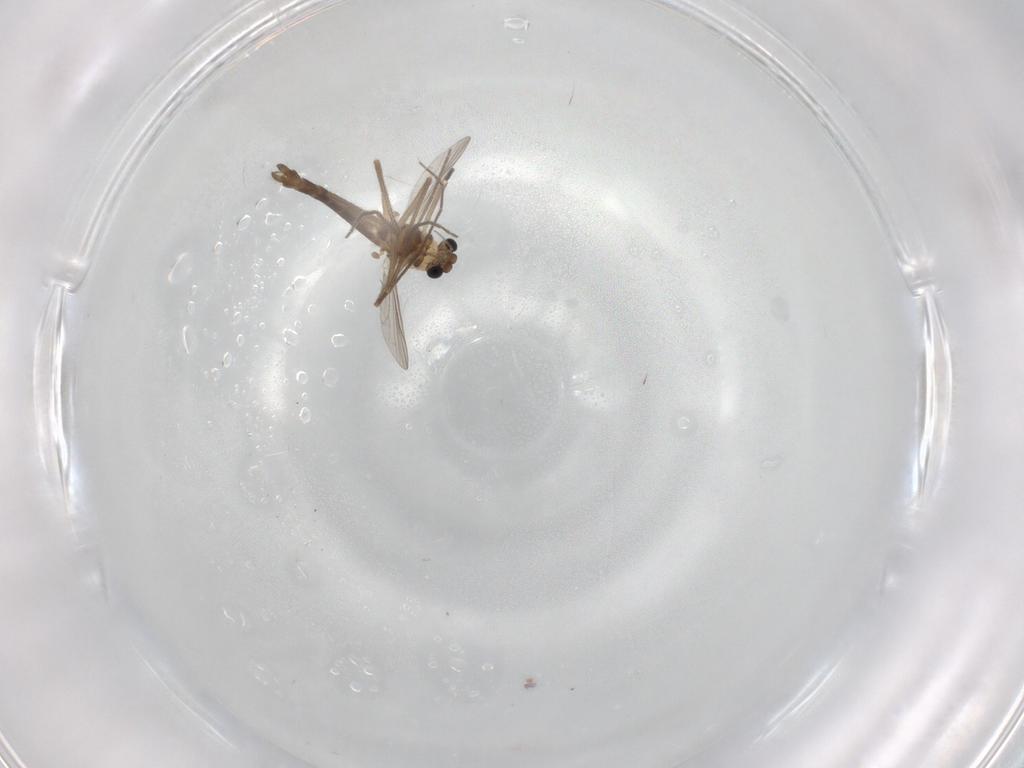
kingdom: Animalia
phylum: Arthropoda
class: Insecta
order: Diptera
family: Chironomidae
